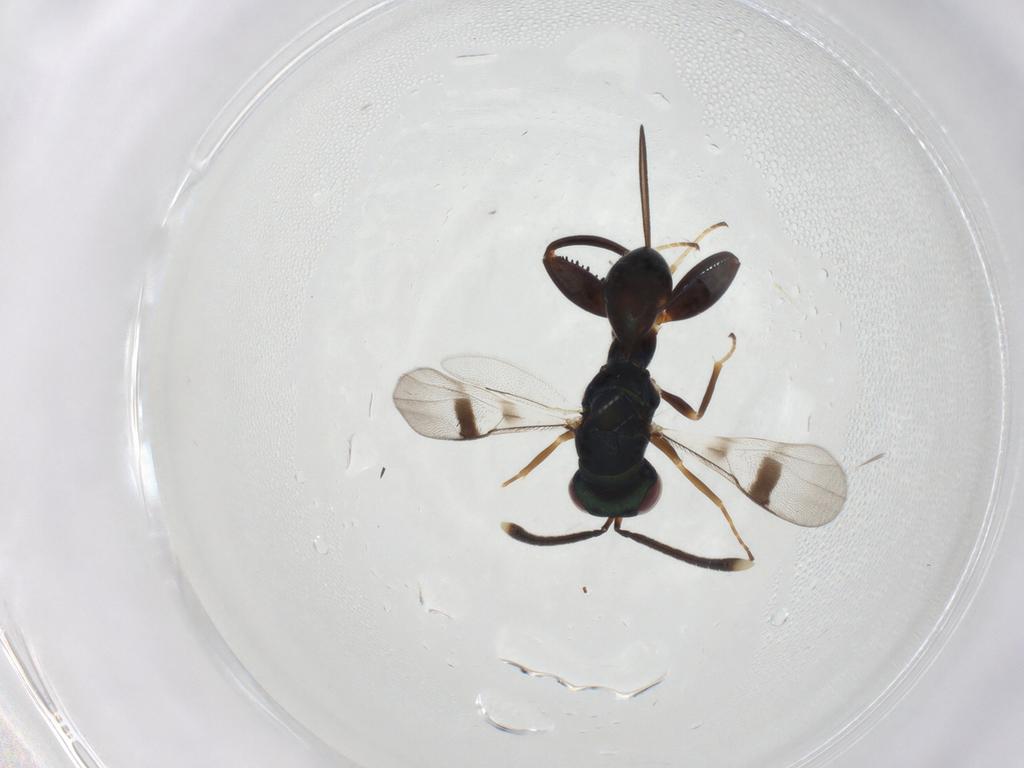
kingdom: Animalia
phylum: Arthropoda
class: Insecta
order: Hymenoptera
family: Torymidae
